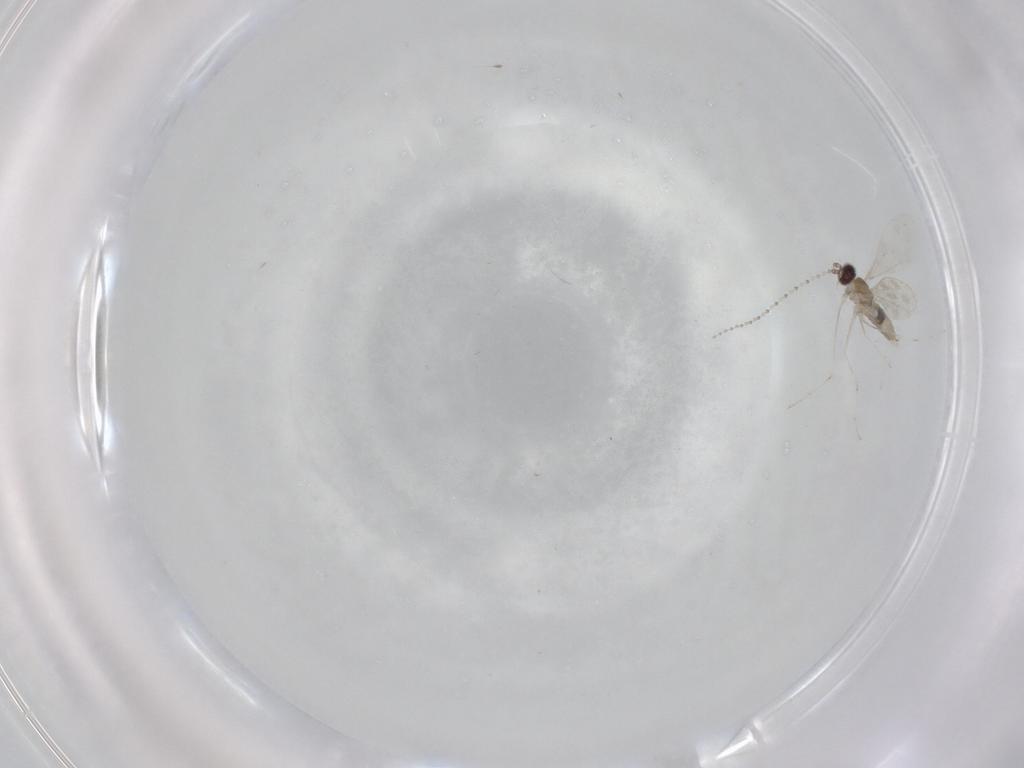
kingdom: Animalia
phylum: Arthropoda
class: Insecta
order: Diptera
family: Cecidomyiidae
